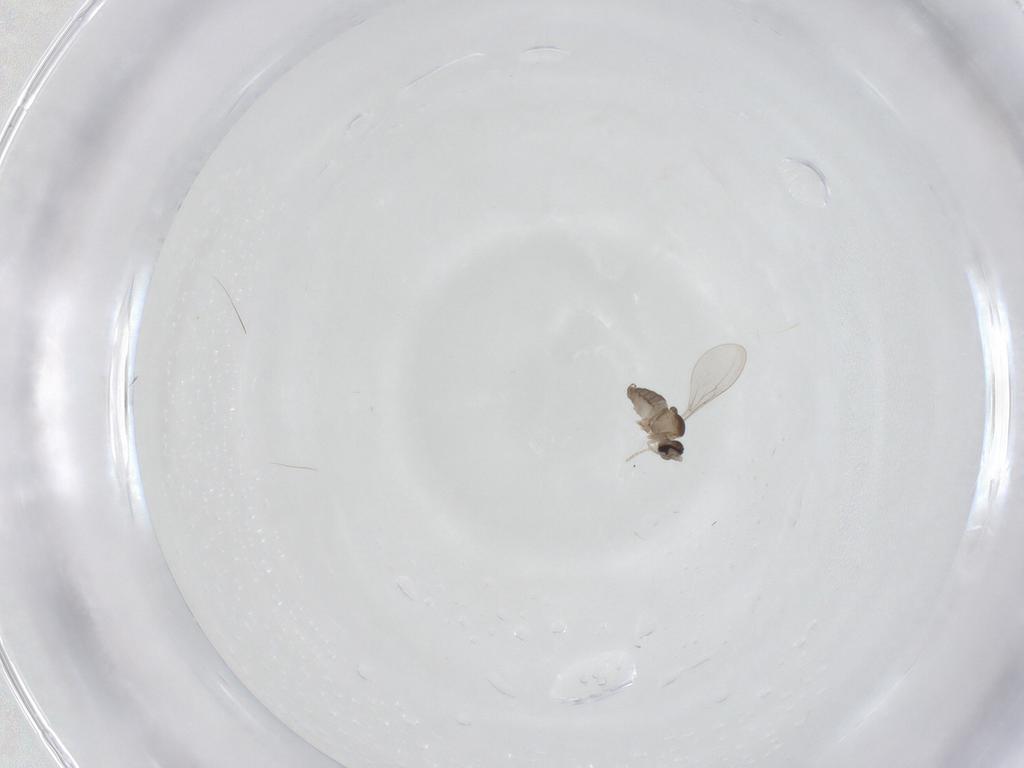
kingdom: Animalia
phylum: Arthropoda
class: Insecta
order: Diptera
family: Cecidomyiidae
